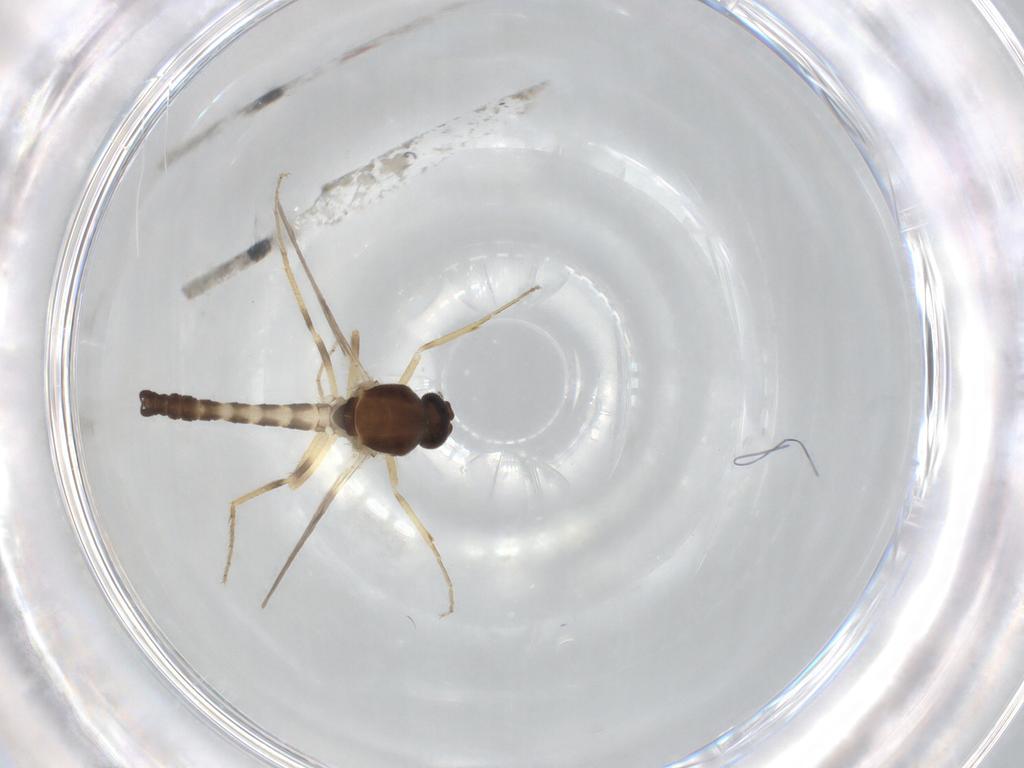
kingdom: Animalia
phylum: Arthropoda
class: Insecta
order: Diptera
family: Ceratopogonidae
